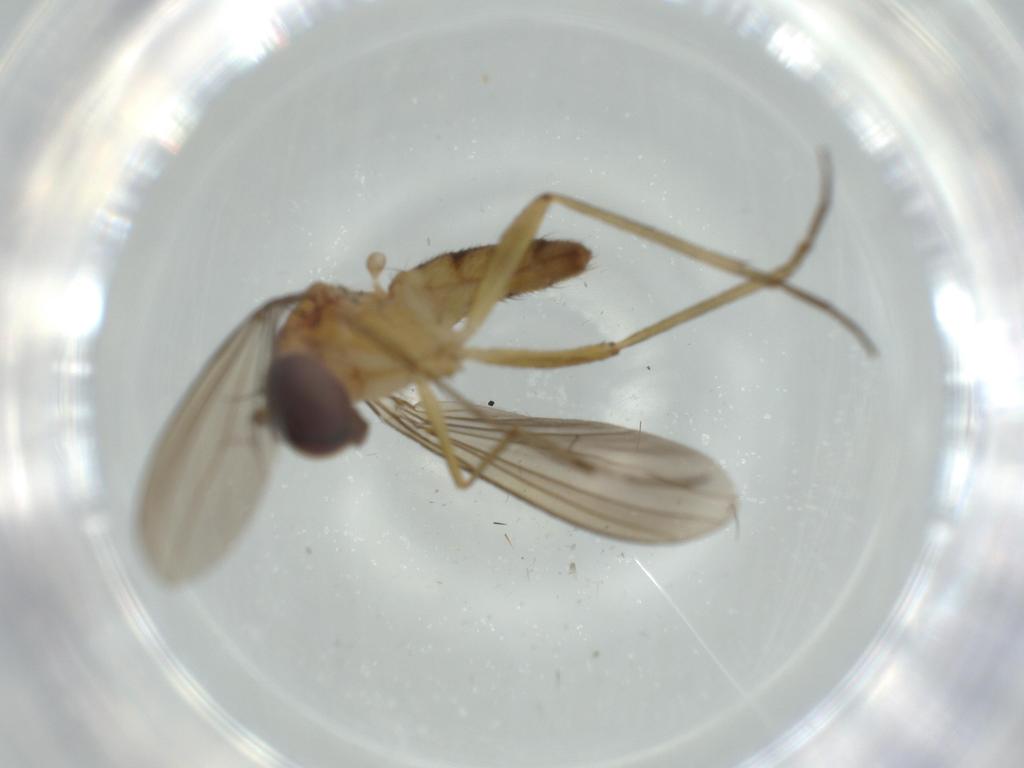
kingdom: Animalia
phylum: Arthropoda
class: Insecta
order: Diptera
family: Dolichopodidae
